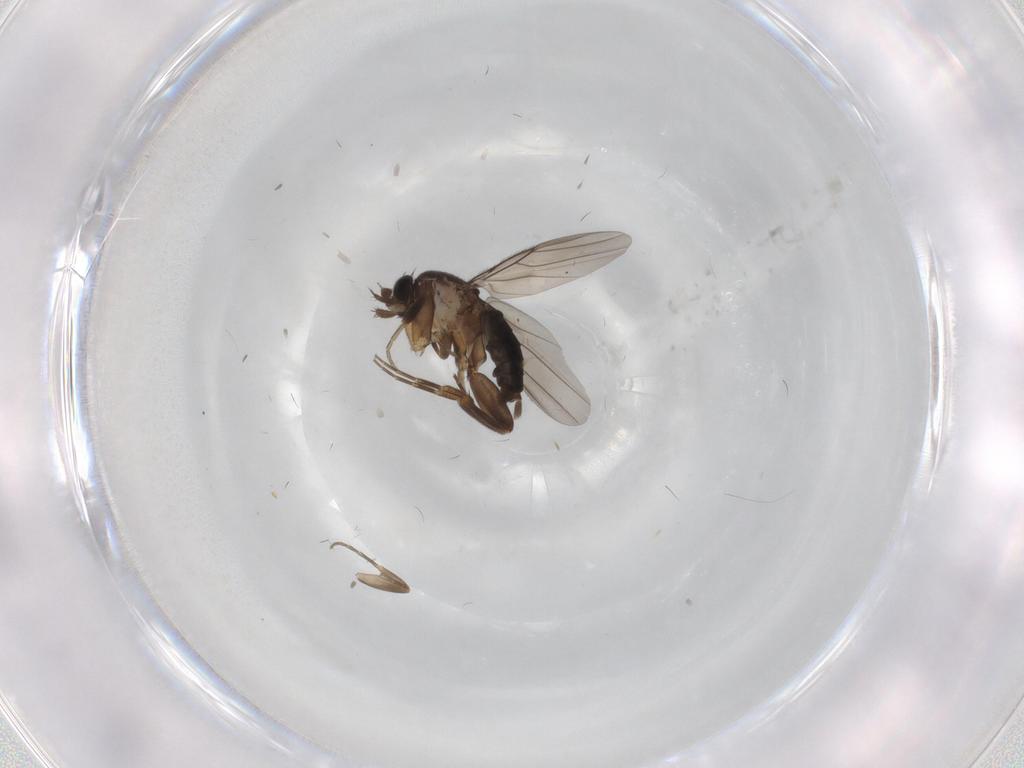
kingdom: Animalia
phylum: Arthropoda
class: Insecta
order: Diptera
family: Phoridae
